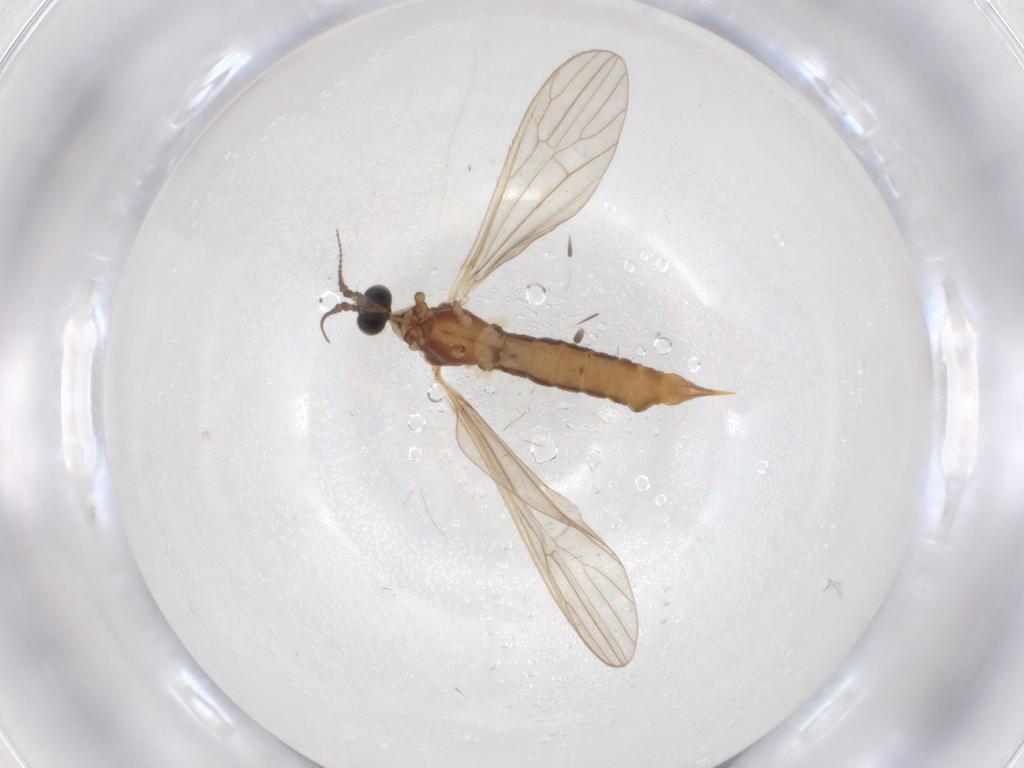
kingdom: Animalia
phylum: Arthropoda
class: Insecta
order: Diptera
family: Limoniidae
